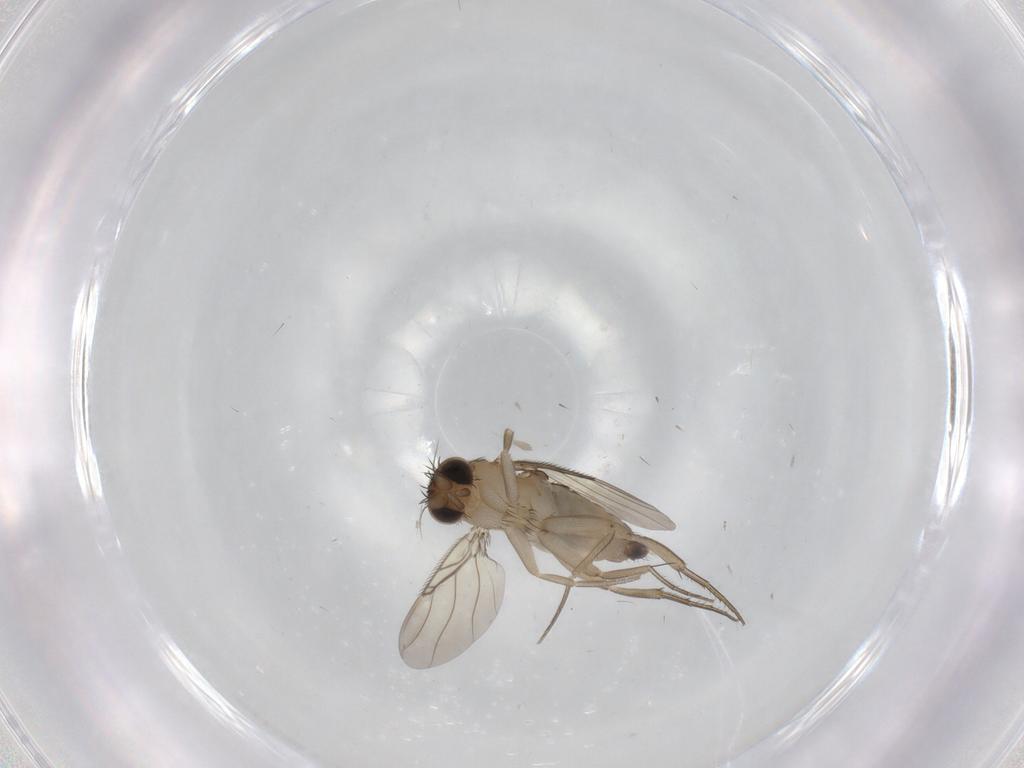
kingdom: Animalia
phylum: Arthropoda
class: Insecta
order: Diptera
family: Phoridae
